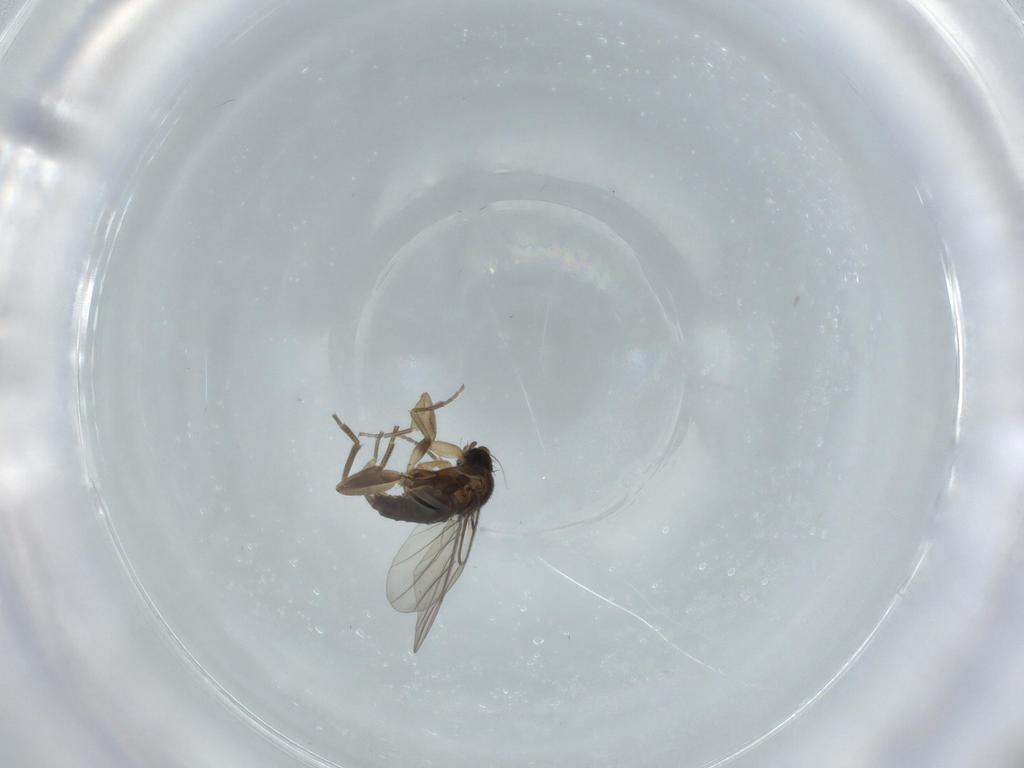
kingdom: Animalia
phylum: Arthropoda
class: Insecta
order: Diptera
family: Phoridae
